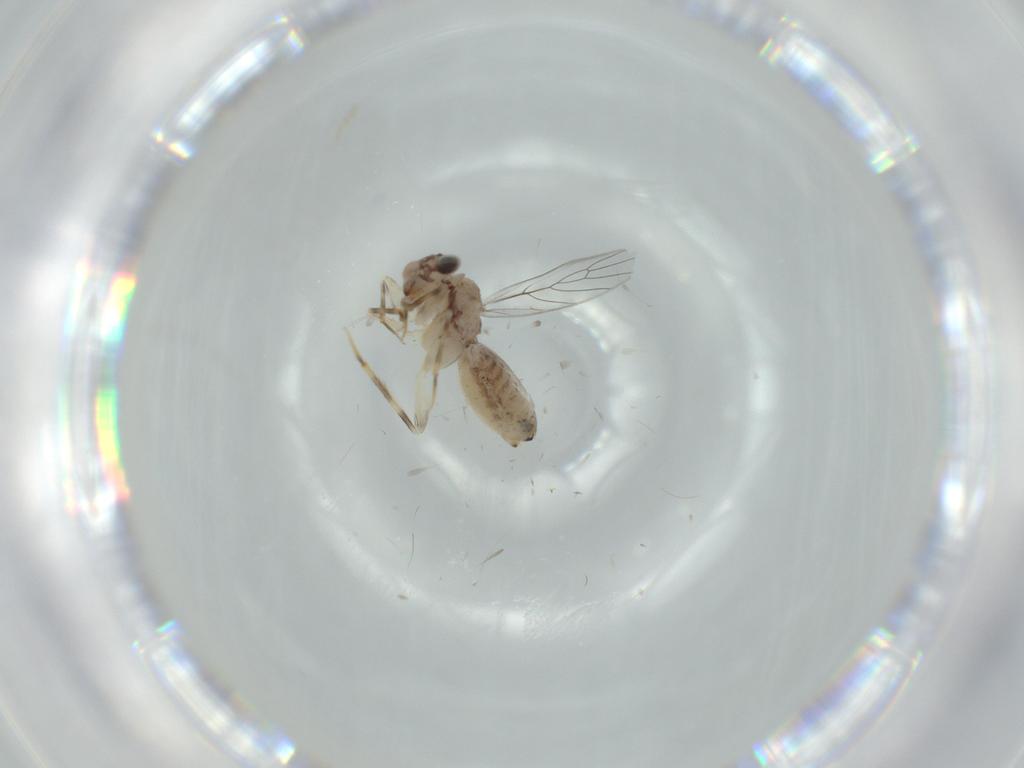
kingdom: Animalia
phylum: Arthropoda
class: Insecta
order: Psocodea
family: Lepidopsocidae
